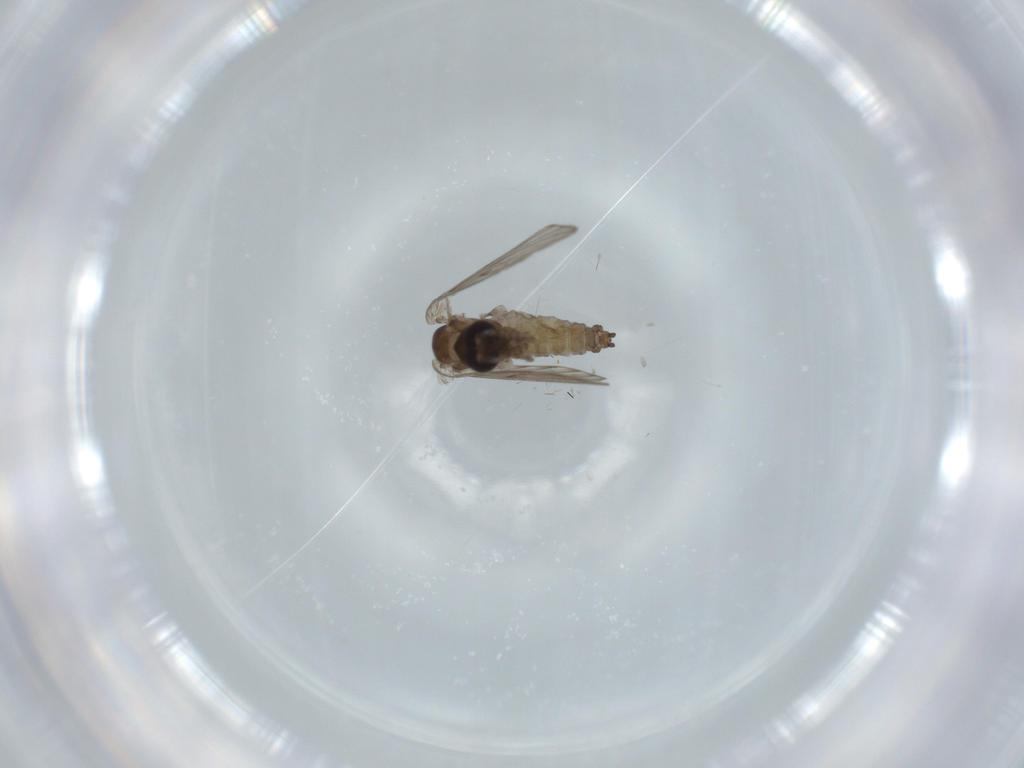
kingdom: Animalia
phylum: Arthropoda
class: Insecta
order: Diptera
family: Psychodidae
